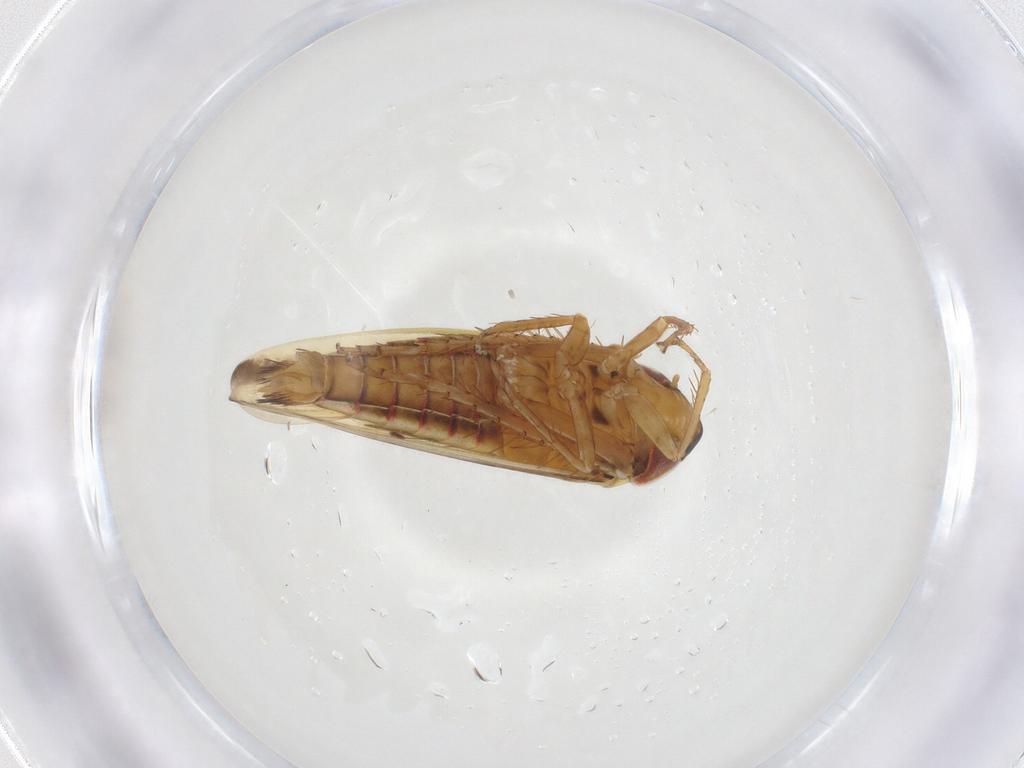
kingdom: Animalia
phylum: Arthropoda
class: Insecta
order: Hemiptera
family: Cicadellidae
